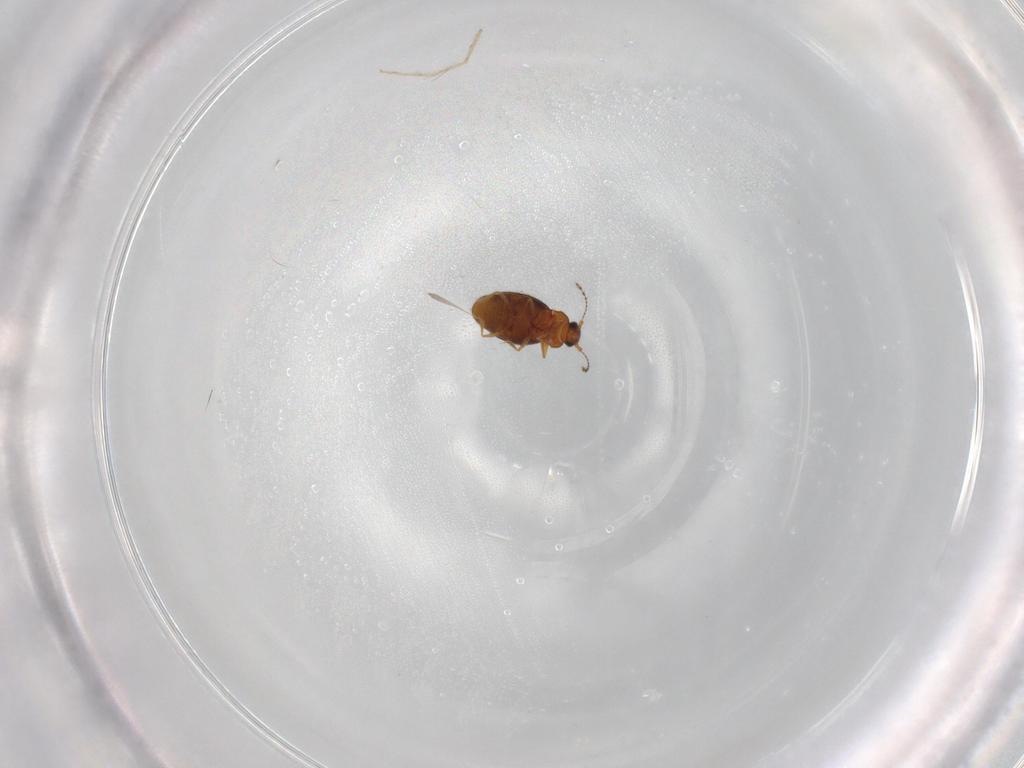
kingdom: Animalia
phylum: Arthropoda
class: Insecta
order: Coleoptera
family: Ptiliidae
